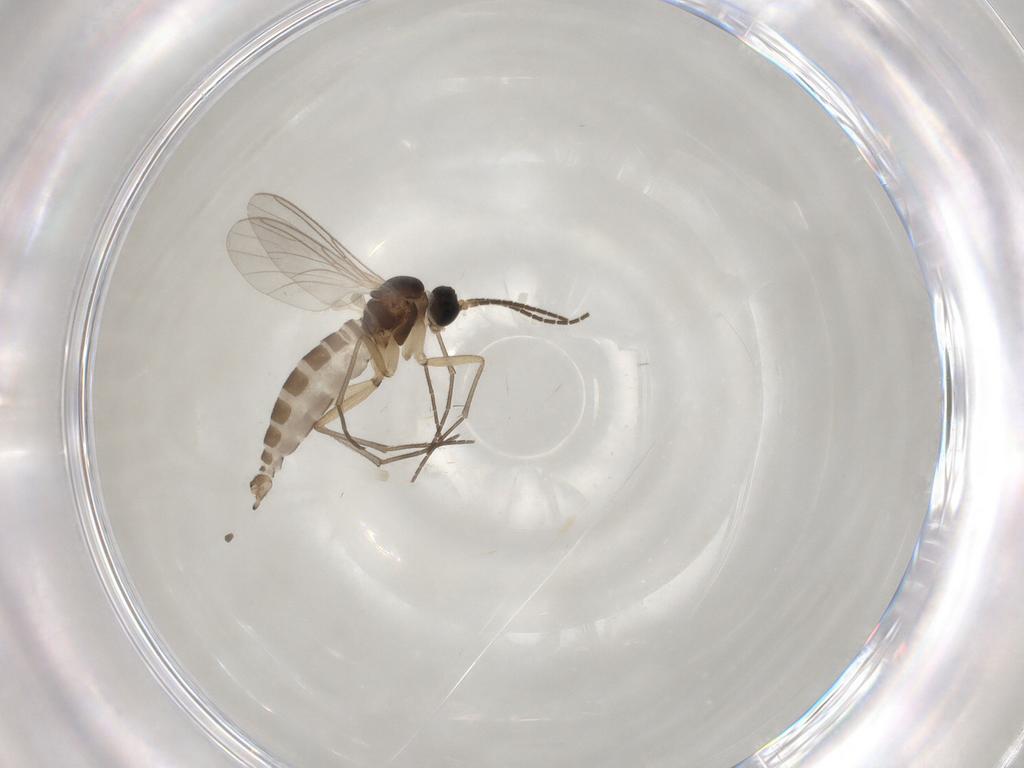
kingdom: Animalia
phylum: Arthropoda
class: Insecta
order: Diptera
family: Sciaridae
